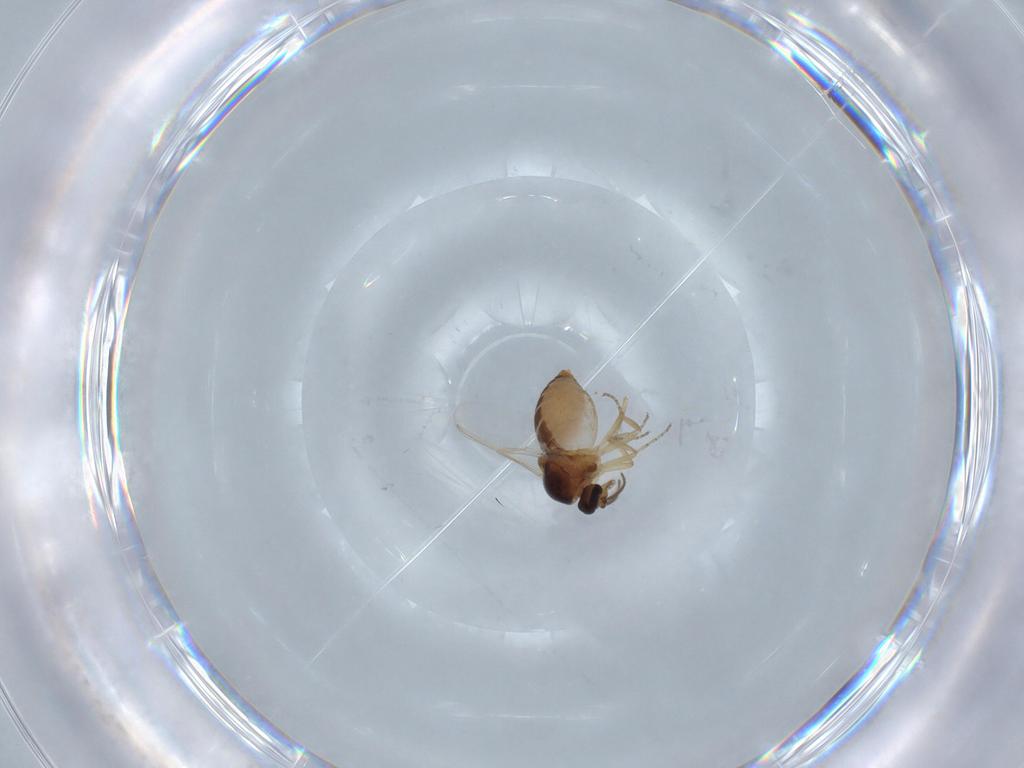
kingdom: Animalia
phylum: Arthropoda
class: Insecta
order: Diptera
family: Ceratopogonidae
